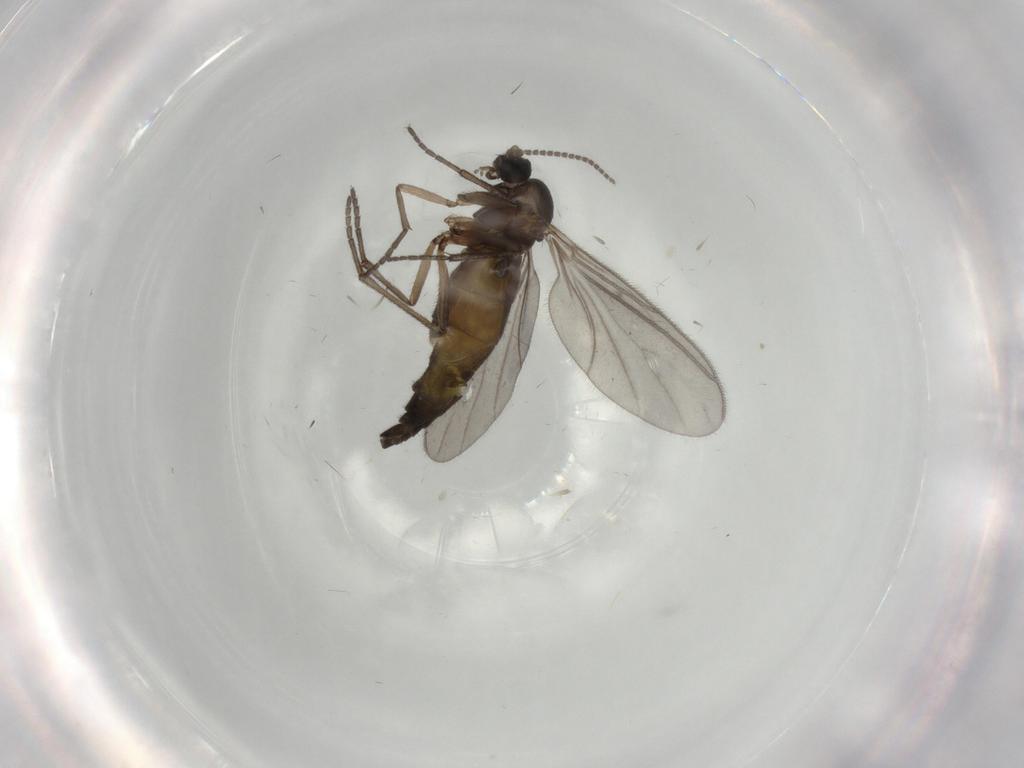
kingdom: Animalia
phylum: Arthropoda
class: Insecta
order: Diptera
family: Sciaridae
